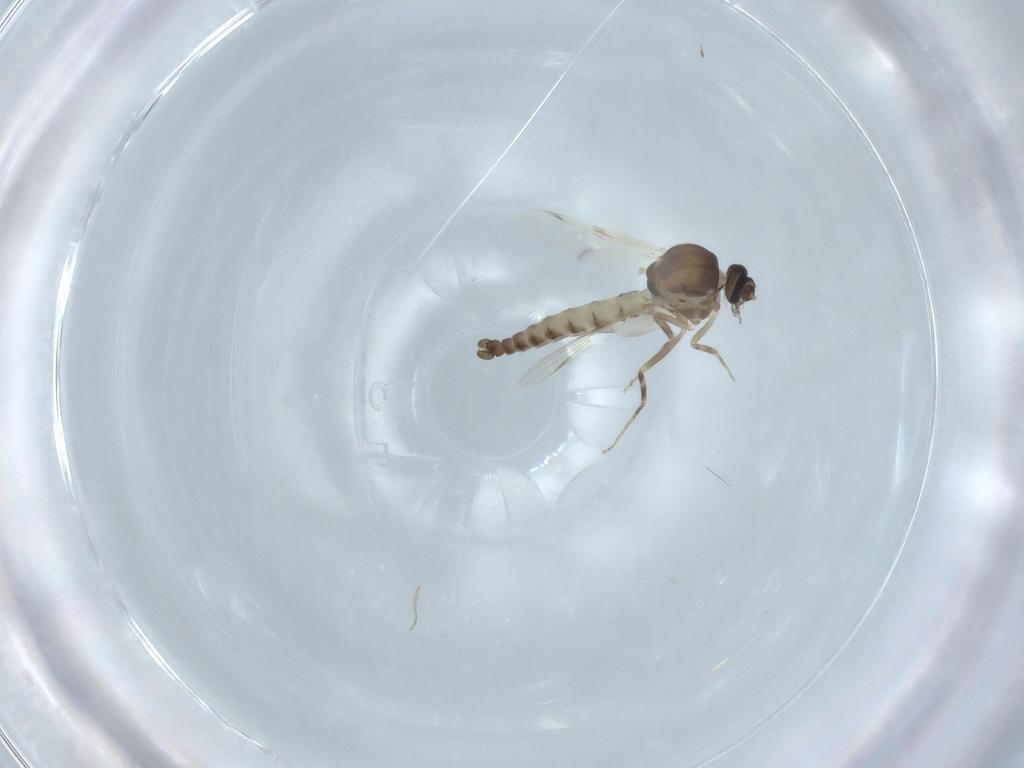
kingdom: Animalia
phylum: Arthropoda
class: Insecta
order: Diptera
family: Ceratopogonidae
